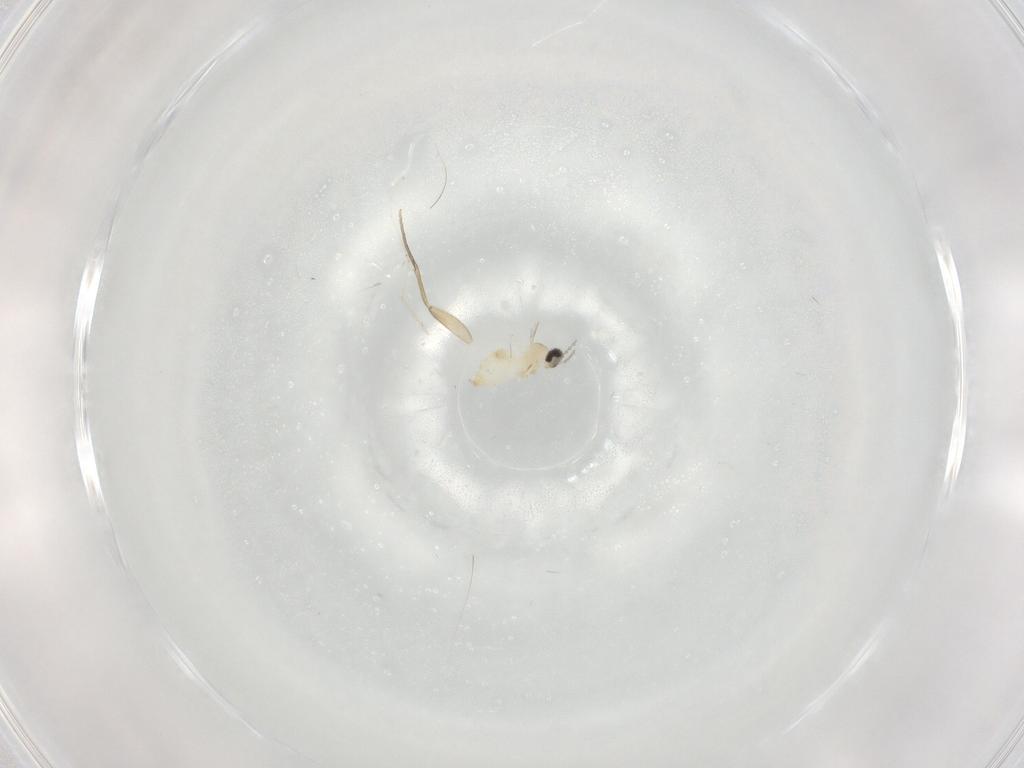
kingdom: Animalia
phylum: Arthropoda
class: Insecta
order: Diptera
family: Cecidomyiidae
